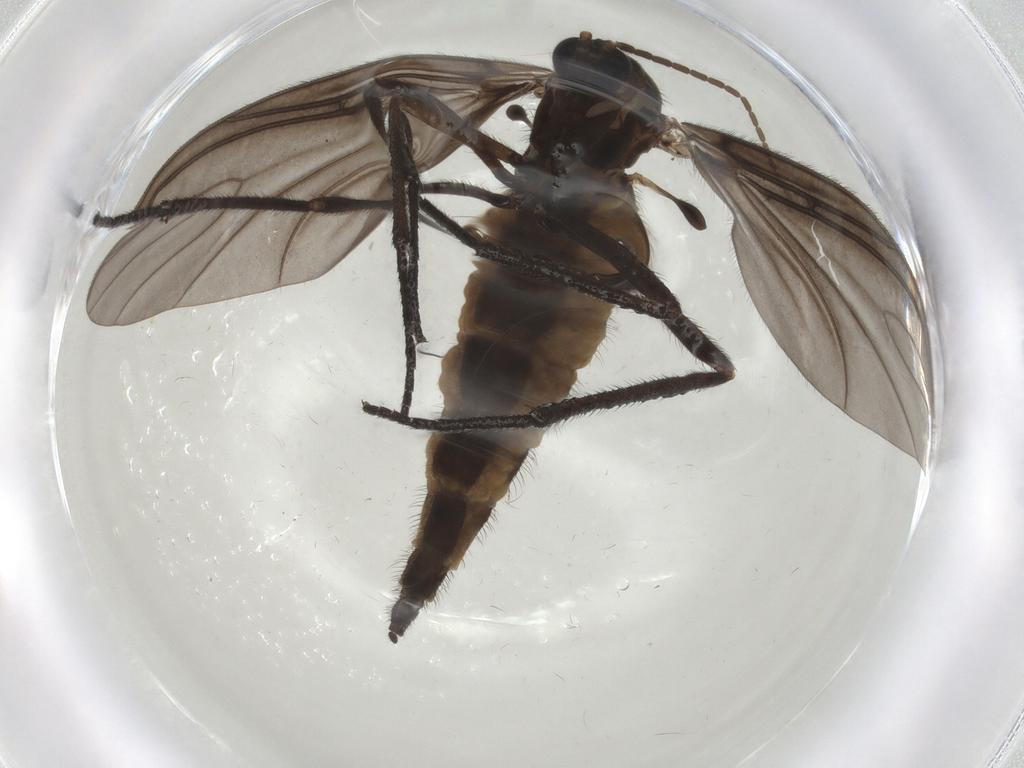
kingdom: Animalia
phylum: Arthropoda
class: Insecta
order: Diptera
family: Sciaridae
